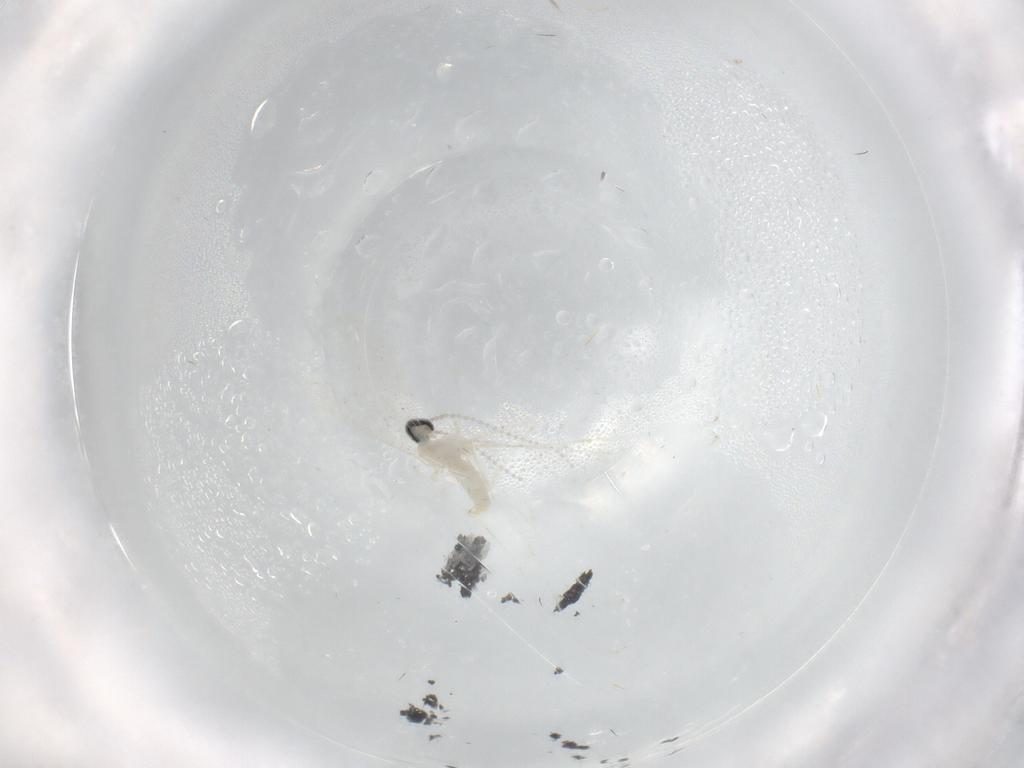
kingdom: Animalia
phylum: Arthropoda
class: Insecta
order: Diptera
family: Cecidomyiidae
